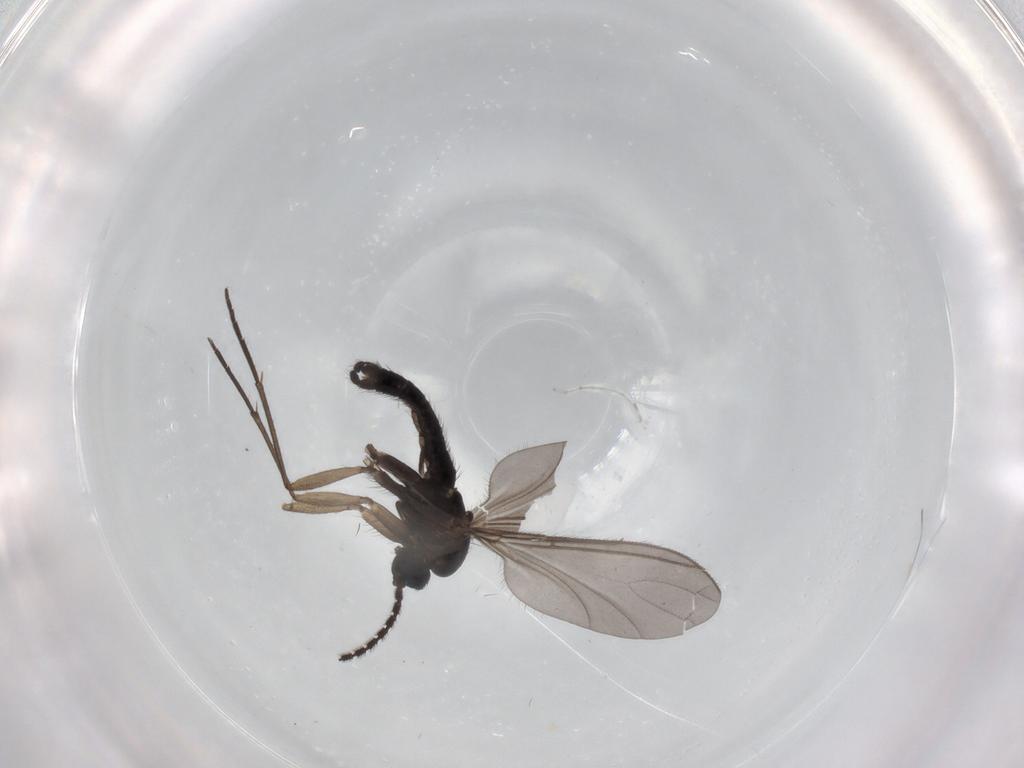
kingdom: Animalia
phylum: Arthropoda
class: Insecta
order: Diptera
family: Sciaridae
